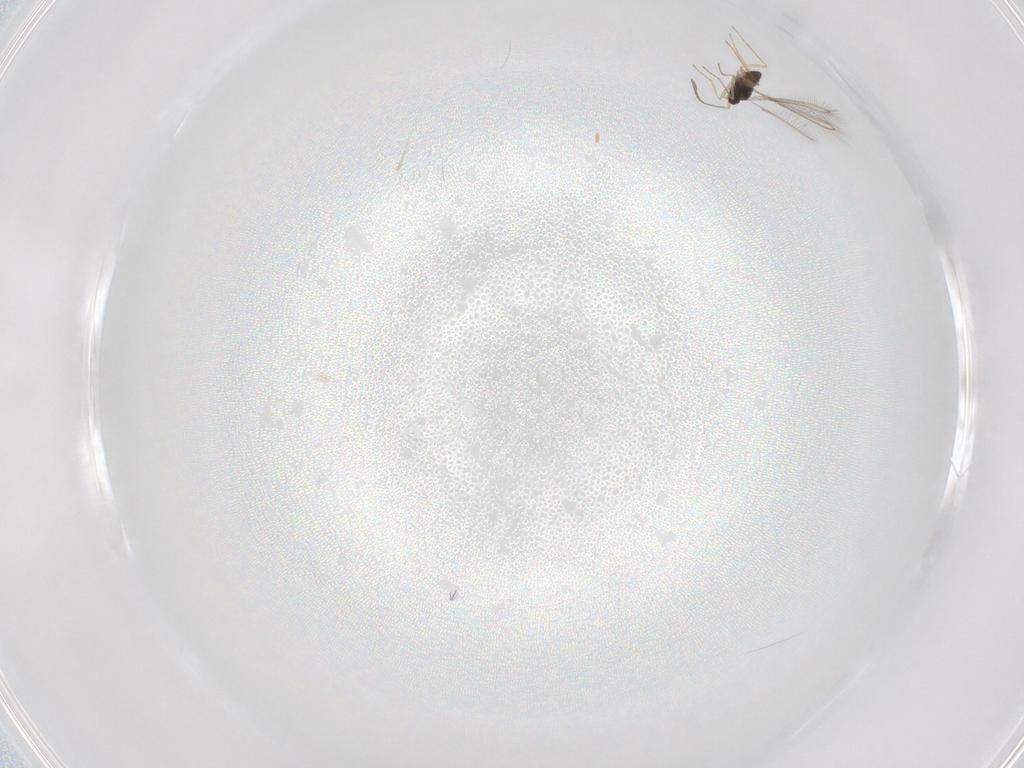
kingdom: Animalia
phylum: Arthropoda
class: Insecta
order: Hymenoptera
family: Mymaridae
